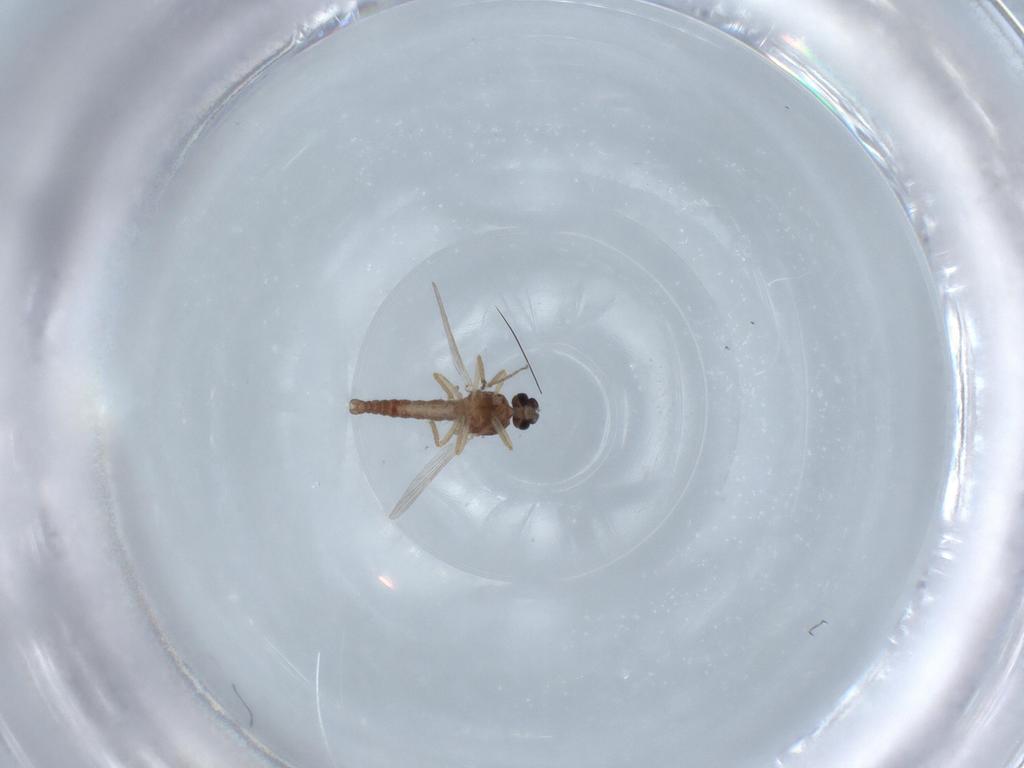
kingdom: Animalia
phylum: Arthropoda
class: Insecta
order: Diptera
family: Ceratopogonidae
